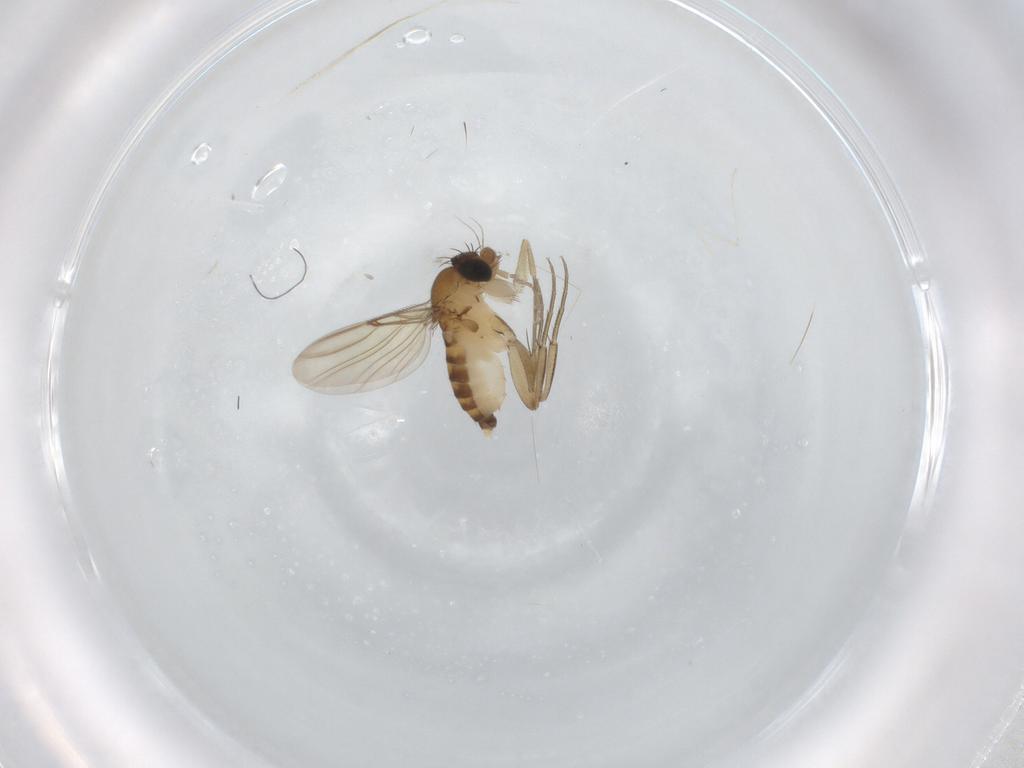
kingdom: Animalia
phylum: Arthropoda
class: Insecta
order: Diptera
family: Phoridae
